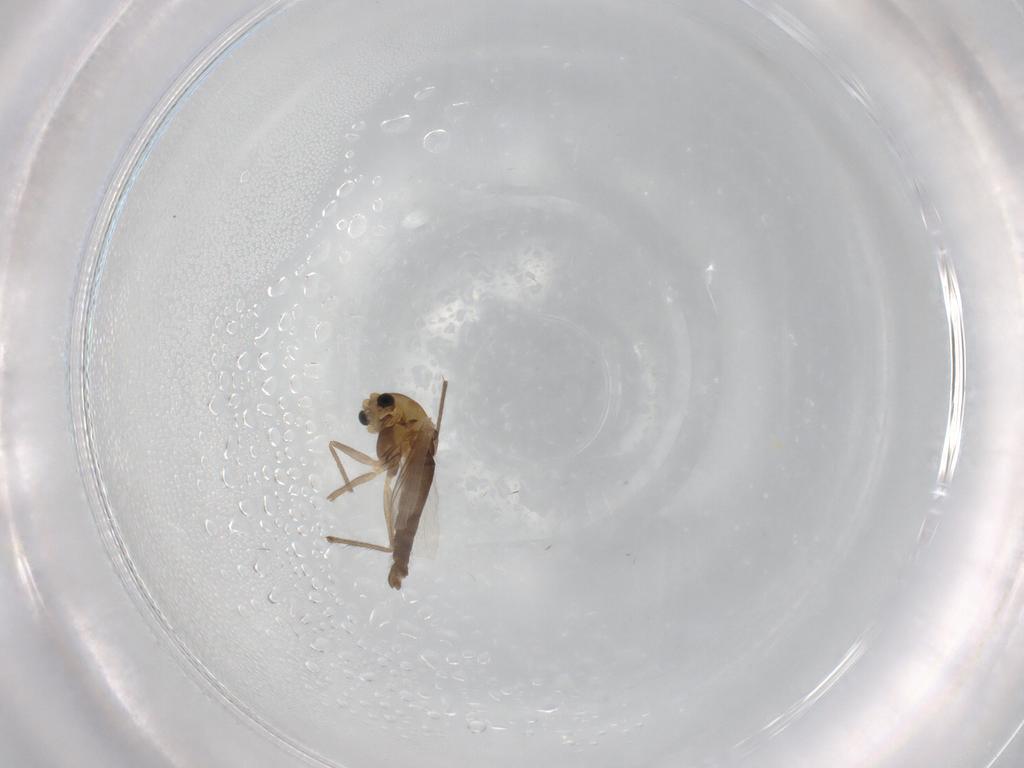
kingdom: Animalia
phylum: Arthropoda
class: Insecta
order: Diptera
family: Chironomidae
